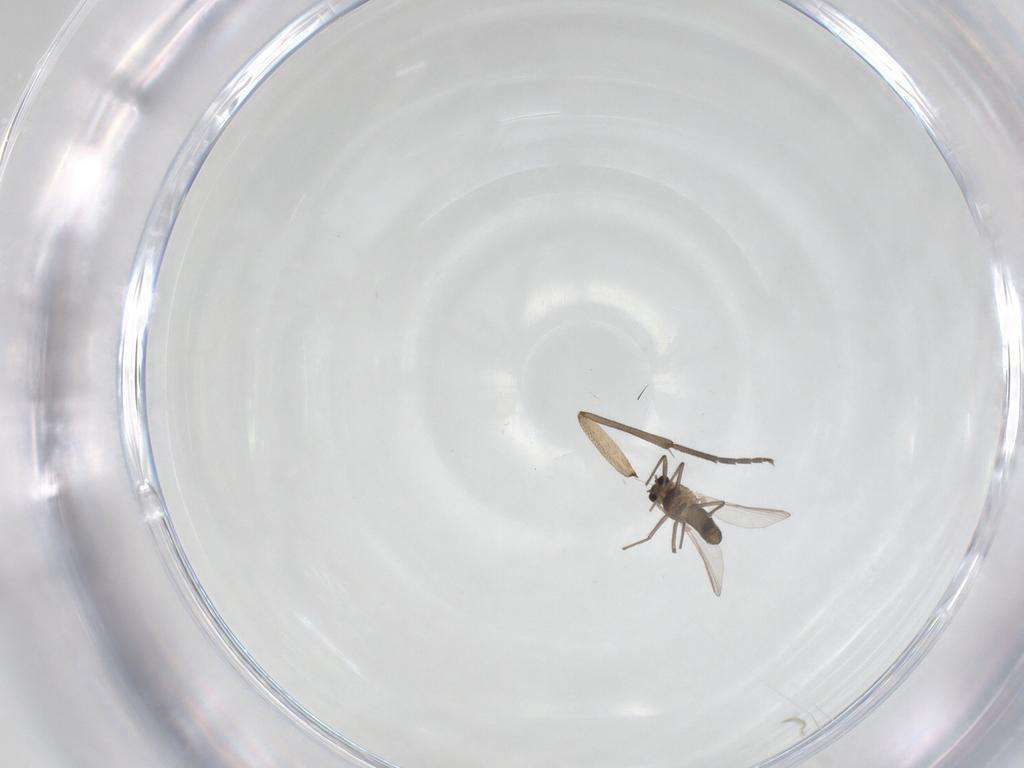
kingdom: Animalia
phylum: Arthropoda
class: Insecta
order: Diptera
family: Chironomidae
